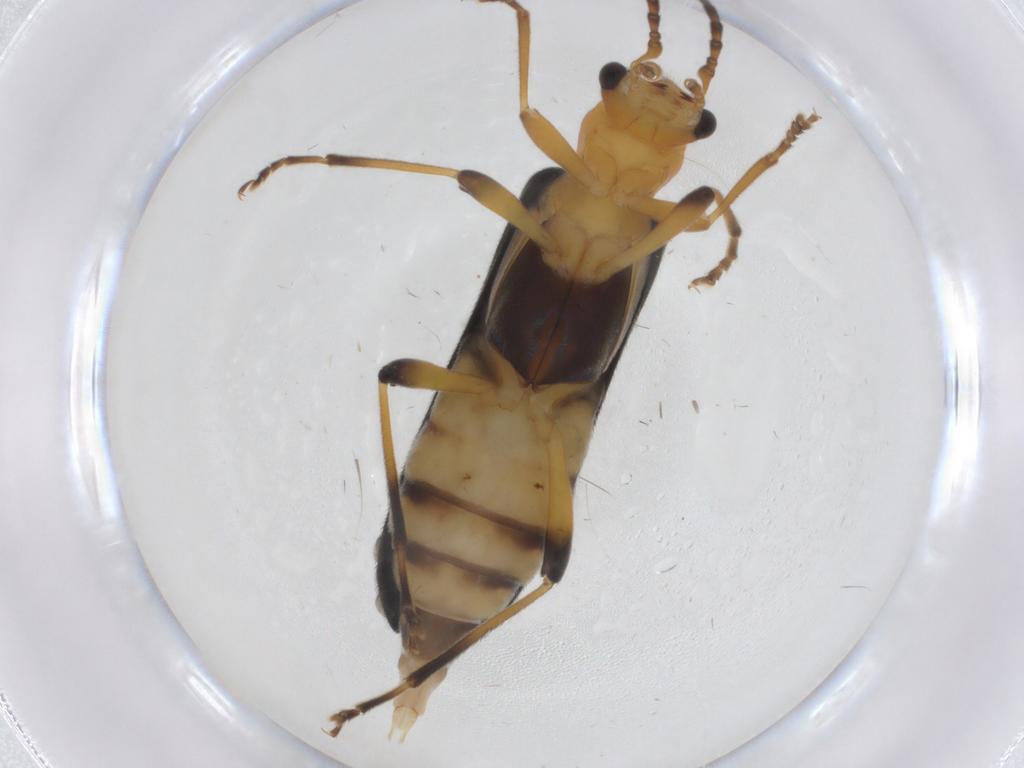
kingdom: Animalia
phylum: Arthropoda
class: Insecta
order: Coleoptera
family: Oedemeridae
